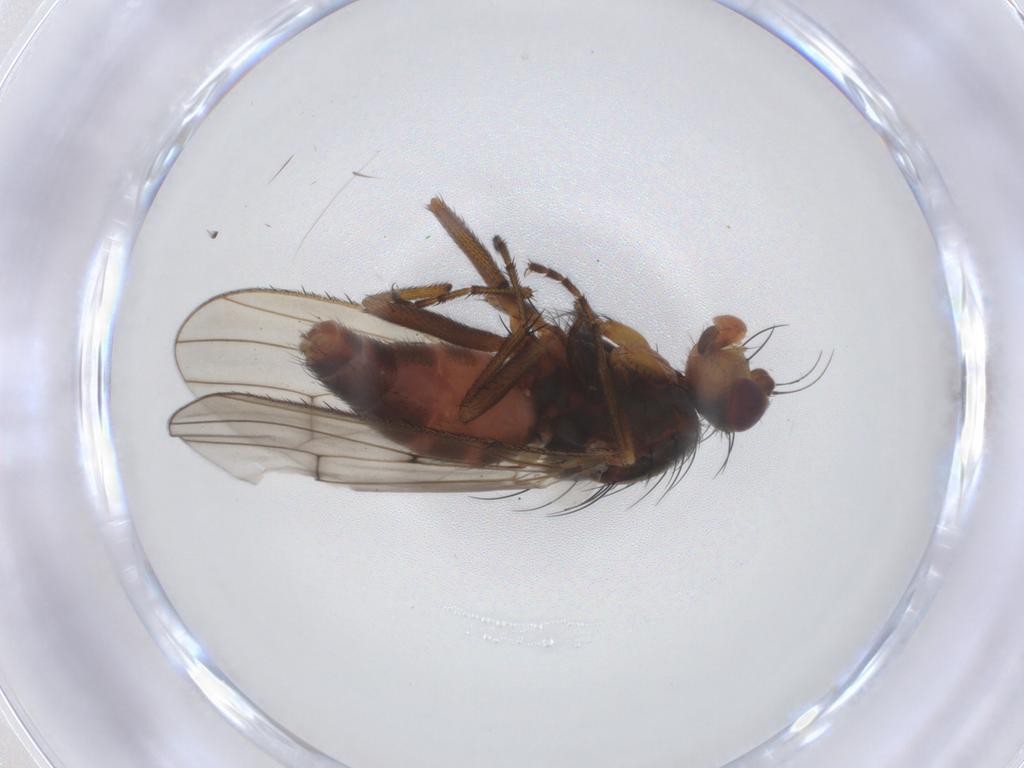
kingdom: Animalia
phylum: Arthropoda
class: Insecta
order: Diptera
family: Heleomyzidae
